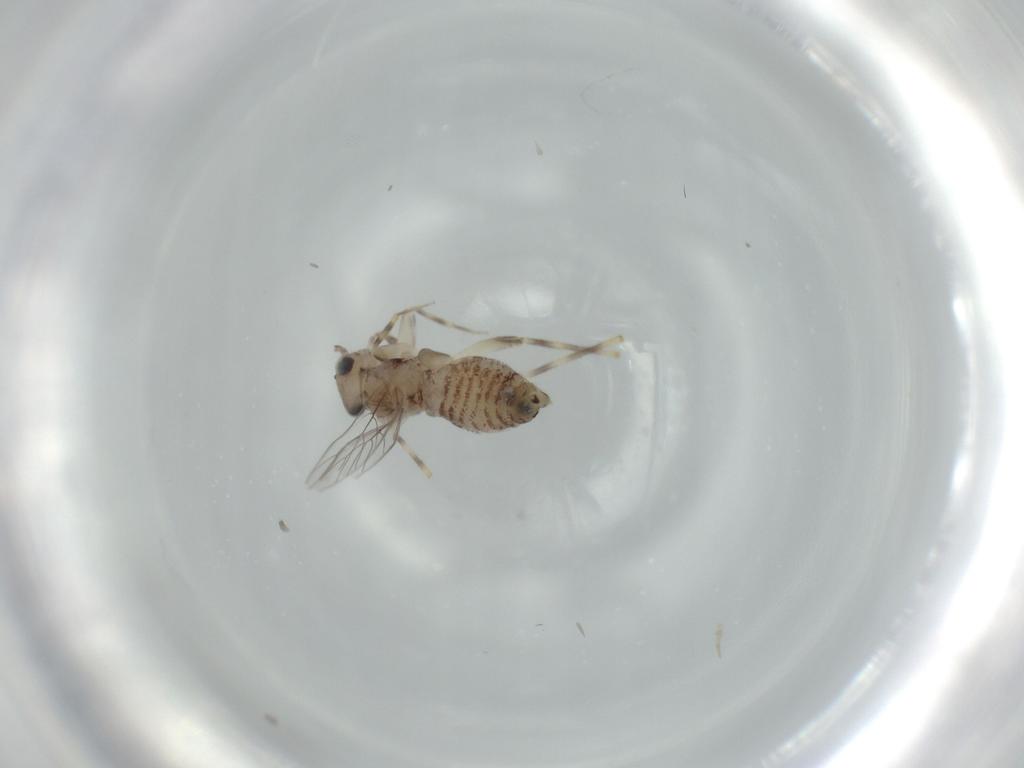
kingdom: Animalia
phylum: Arthropoda
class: Insecta
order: Psocodea
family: Lepidopsocidae
